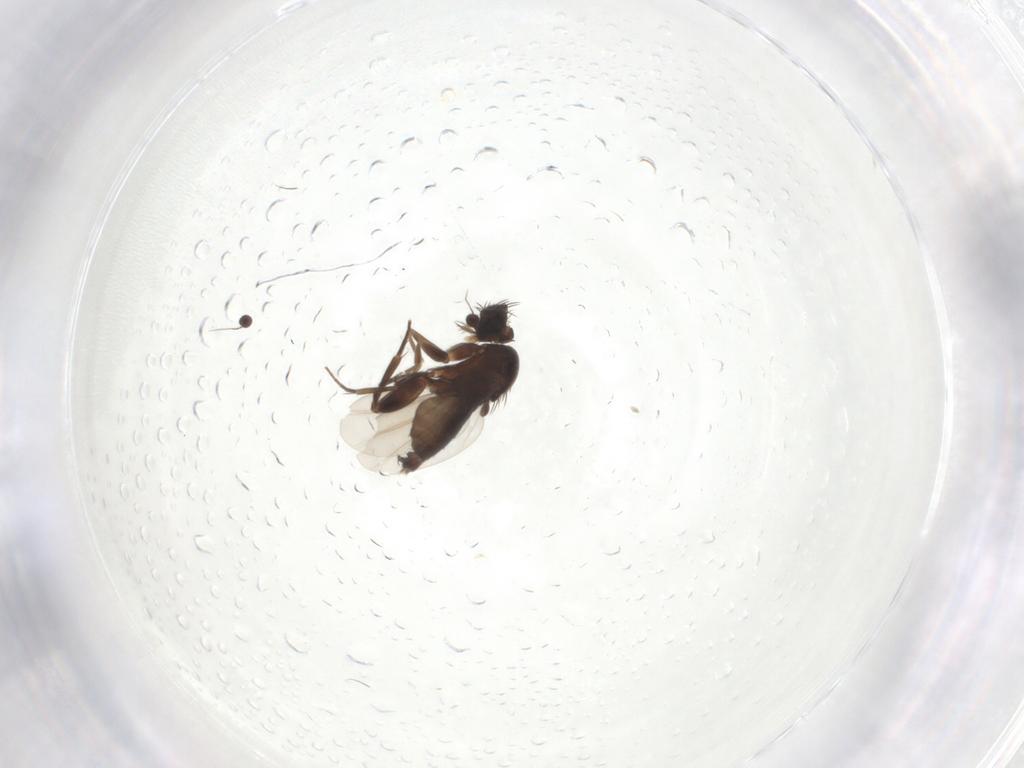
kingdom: Animalia
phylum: Arthropoda
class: Insecta
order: Diptera
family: Phoridae
